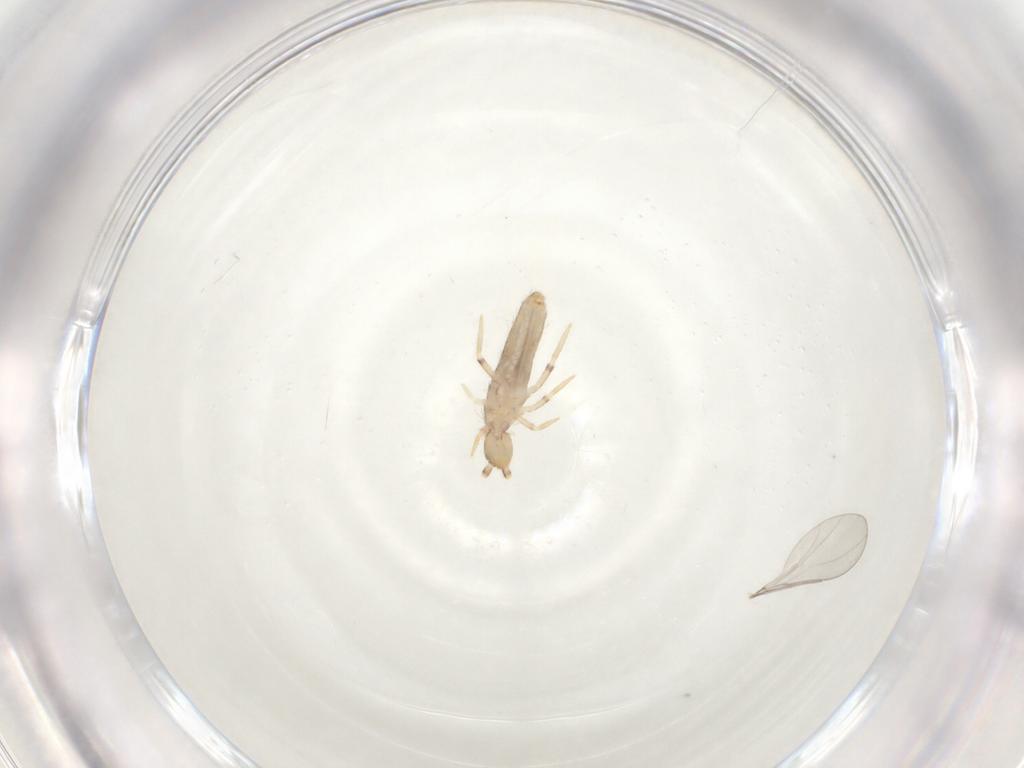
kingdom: Animalia
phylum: Arthropoda
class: Collembola
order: Entomobryomorpha
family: Entomobryidae
